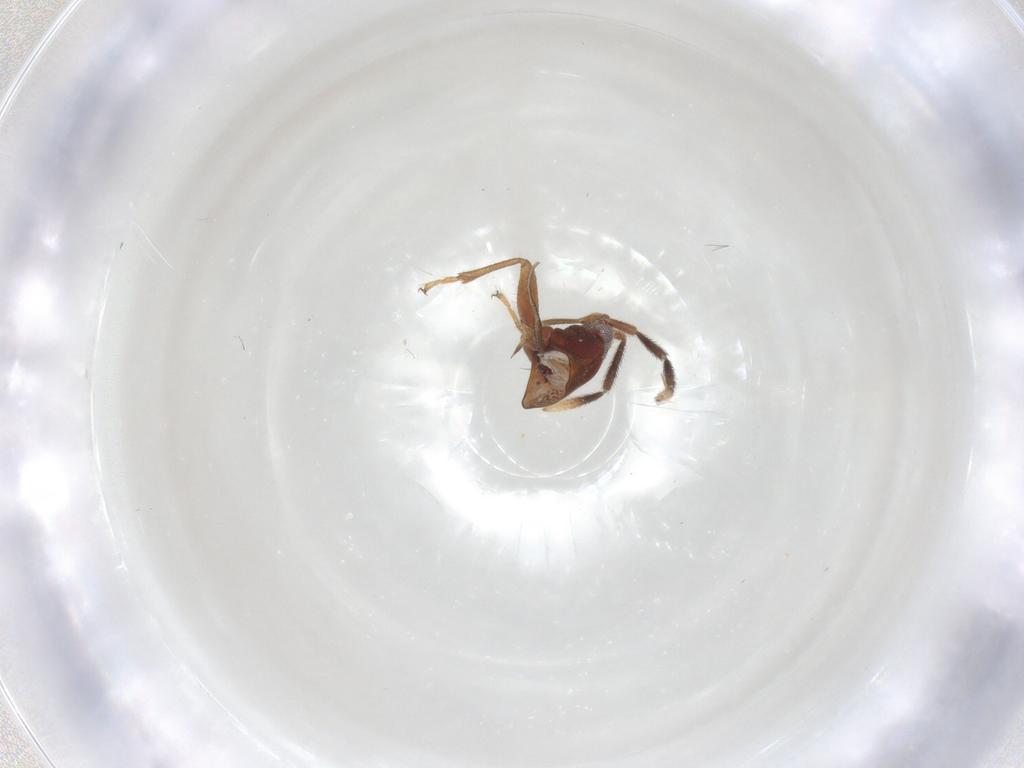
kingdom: Animalia
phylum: Arthropoda
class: Insecta
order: Hemiptera
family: Rhyparochromidae
